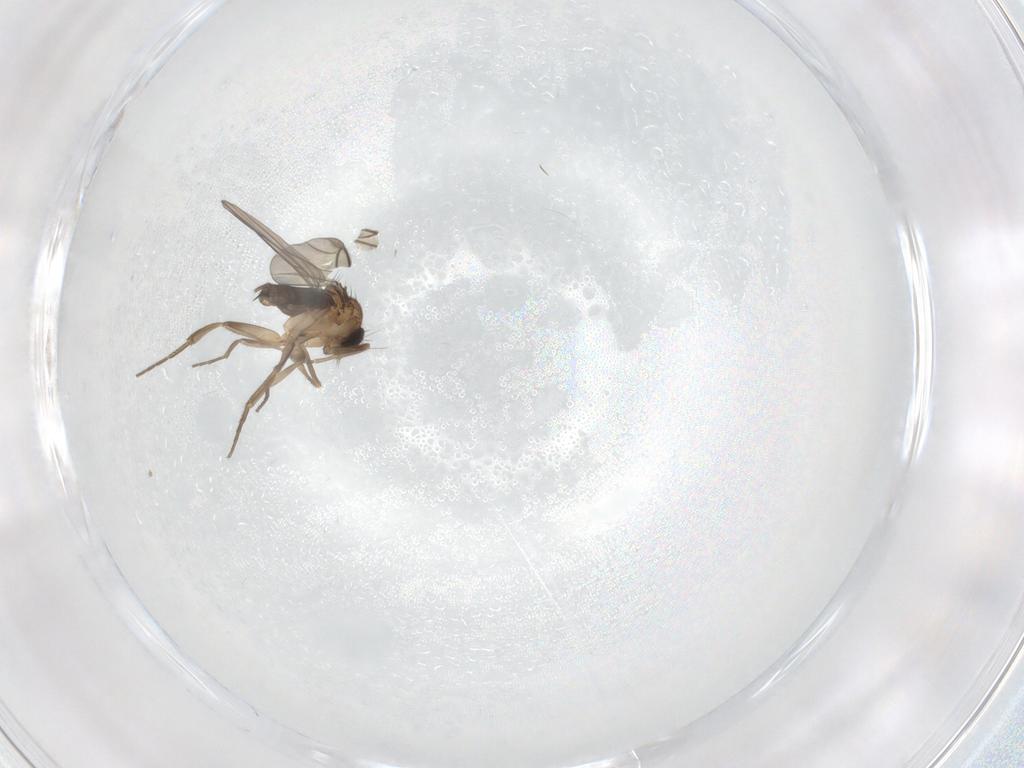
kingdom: Animalia
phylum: Arthropoda
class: Insecta
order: Diptera
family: Phoridae
